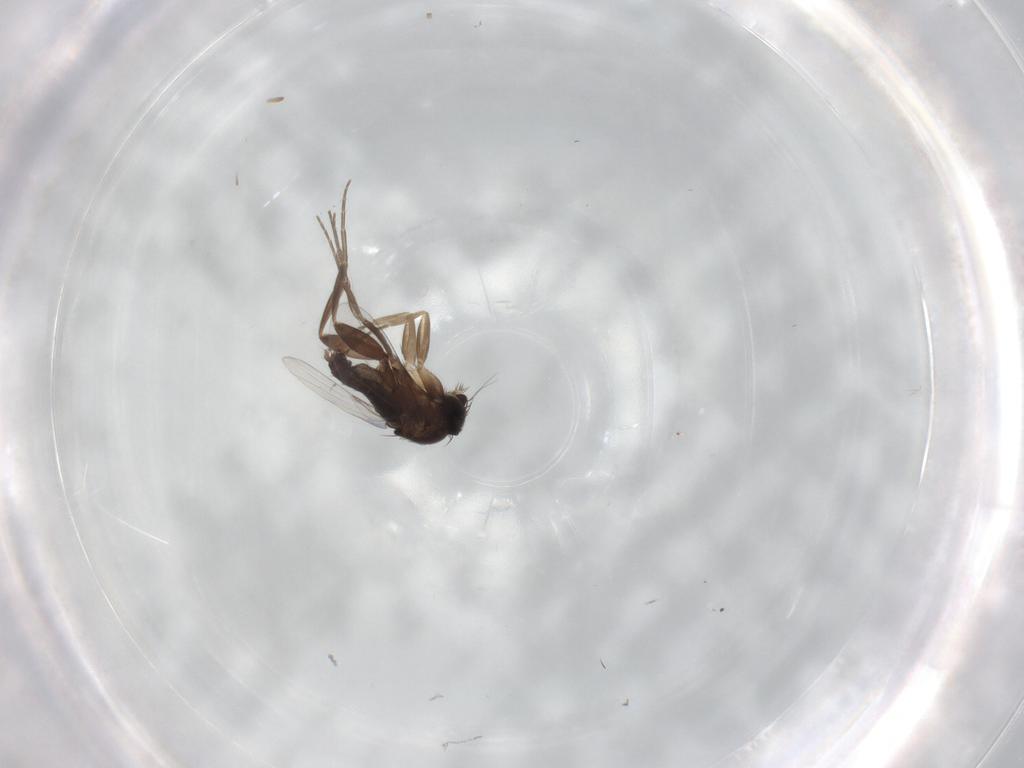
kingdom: Animalia
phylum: Arthropoda
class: Insecta
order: Diptera
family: Phoridae
